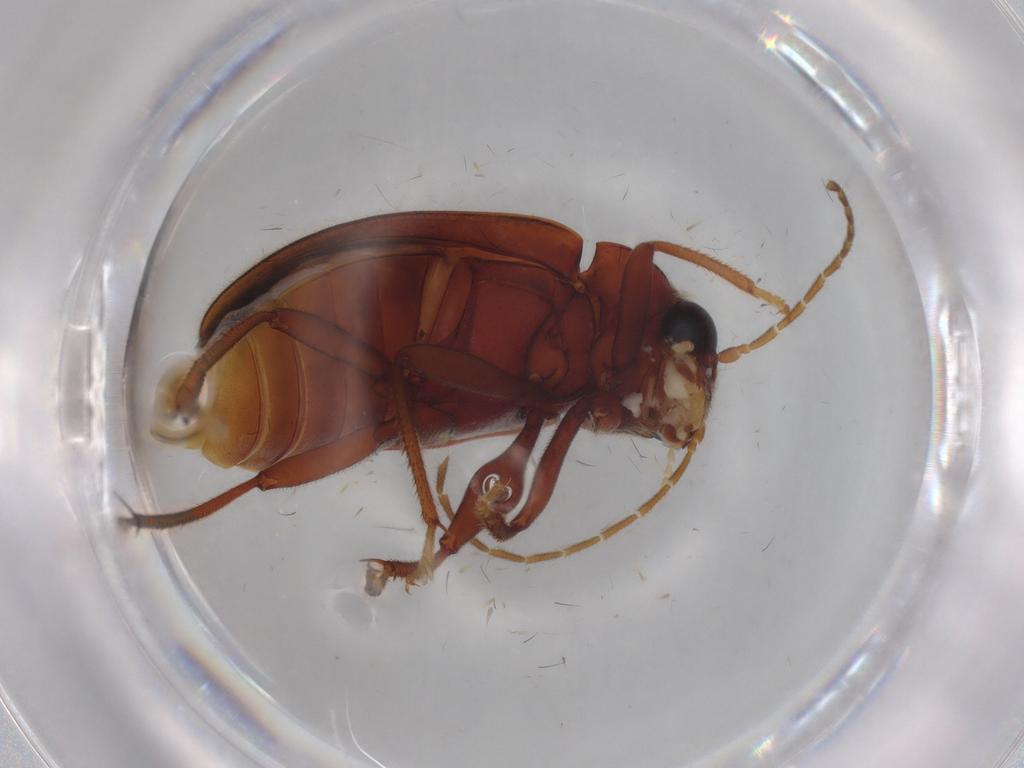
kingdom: Animalia
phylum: Arthropoda
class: Insecta
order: Coleoptera
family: Ptilodactylidae
